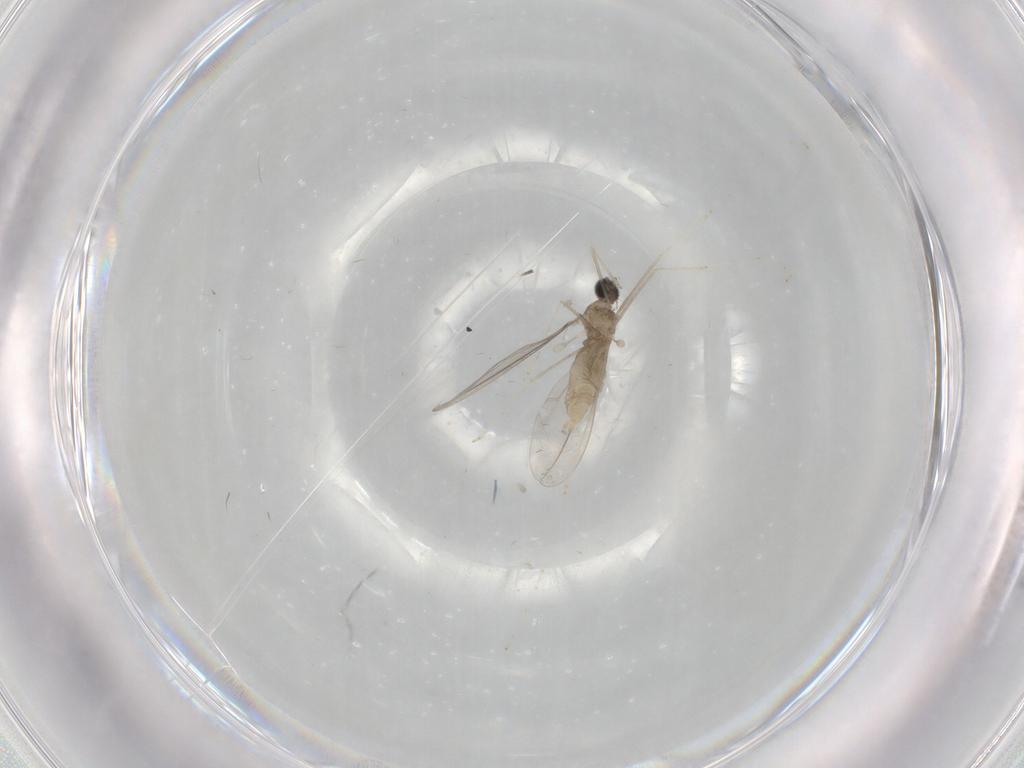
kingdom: Animalia
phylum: Arthropoda
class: Insecta
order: Diptera
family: Cecidomyiidae
